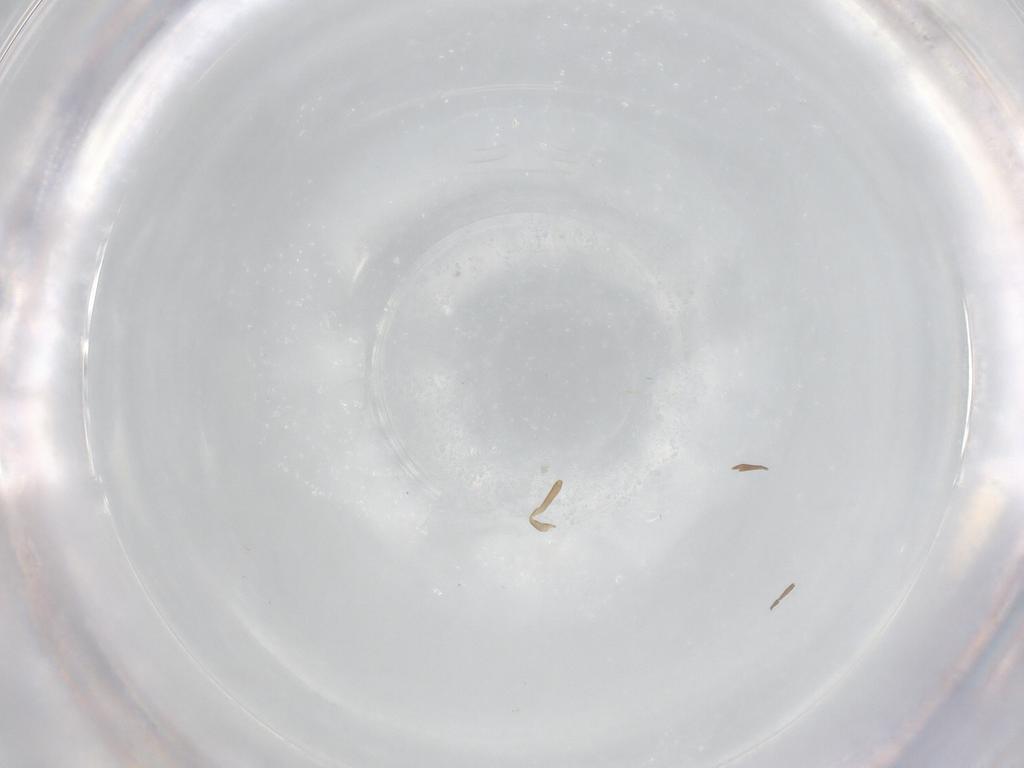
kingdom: Animalia
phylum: Arthropoda
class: Insecta
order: Hemiptera
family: Enicocephalidae
